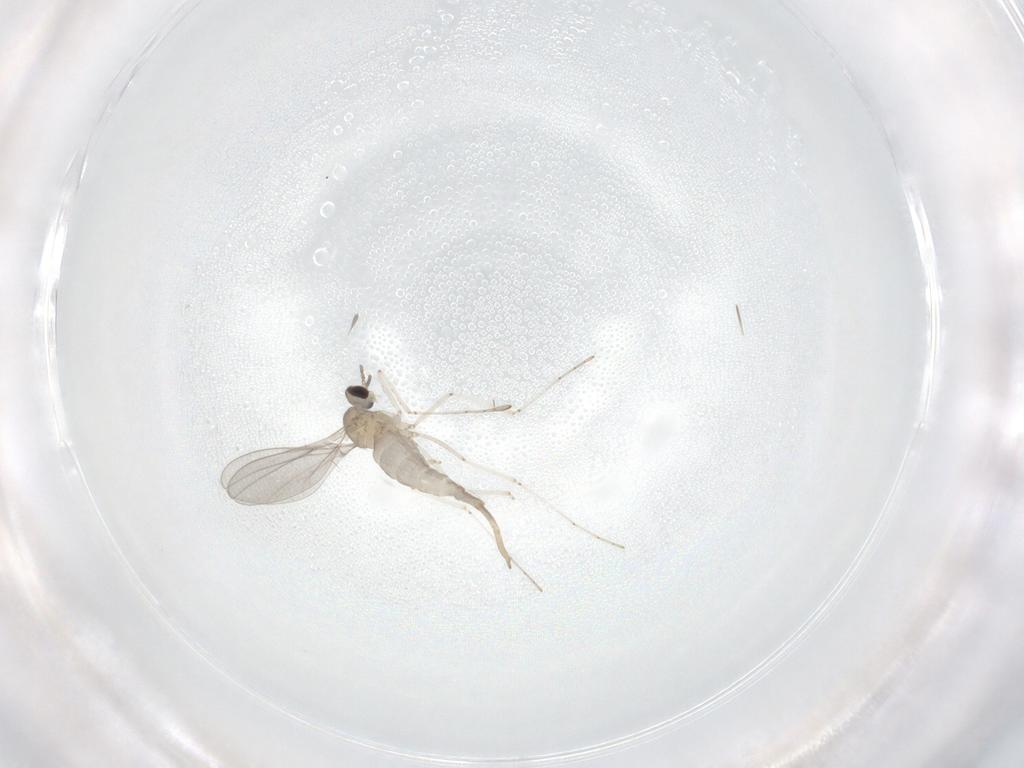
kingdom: Animalia
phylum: Arthropoda
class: Insecta
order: Diptera
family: Cecidomyiidae
